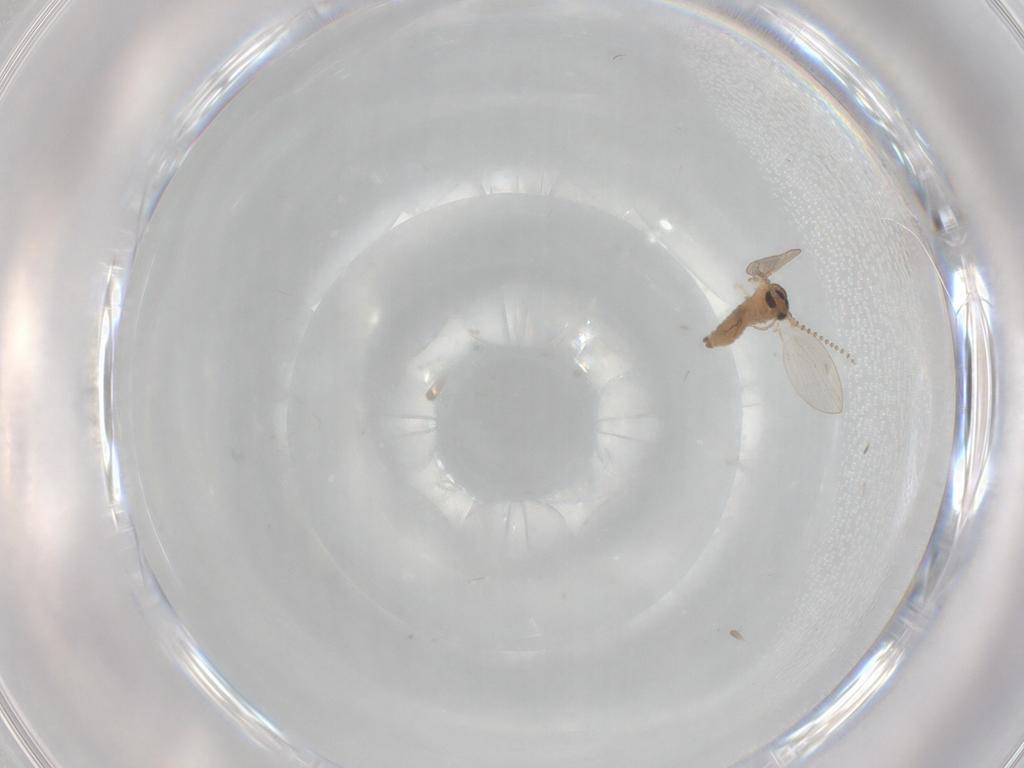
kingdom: Animalia
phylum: Arthropoda
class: Insecta
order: Diptera
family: Psychodidae
